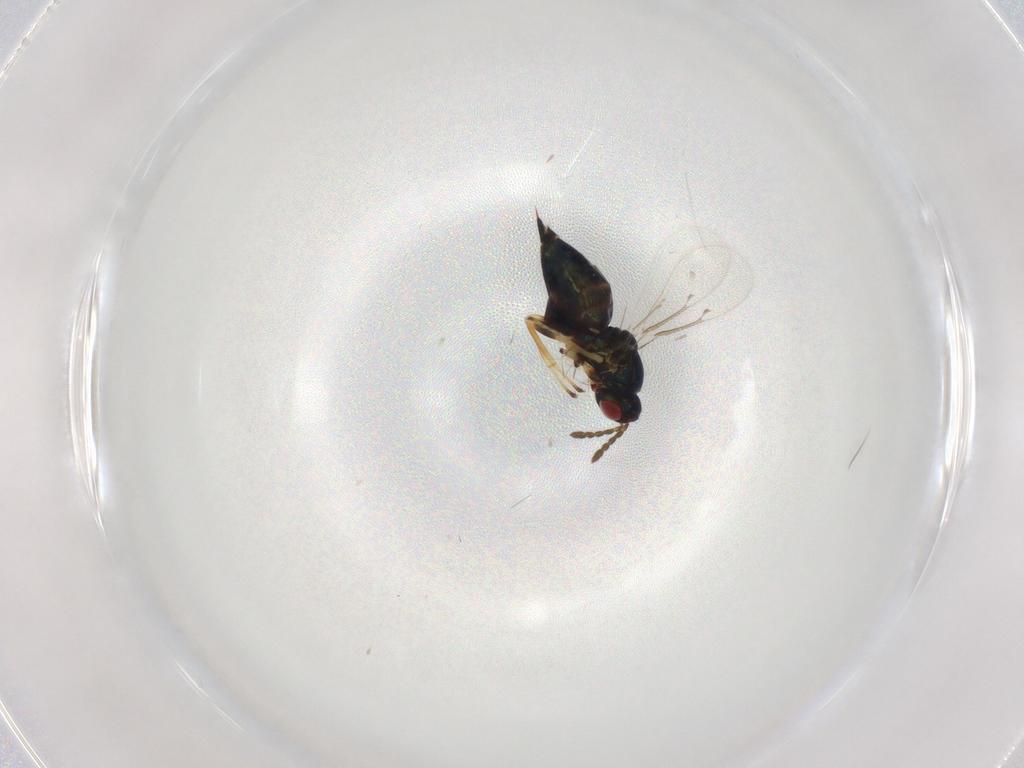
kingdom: Animalia
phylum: Arthropoda
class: Insecta
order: Hymenoptera
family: Eulophidae
